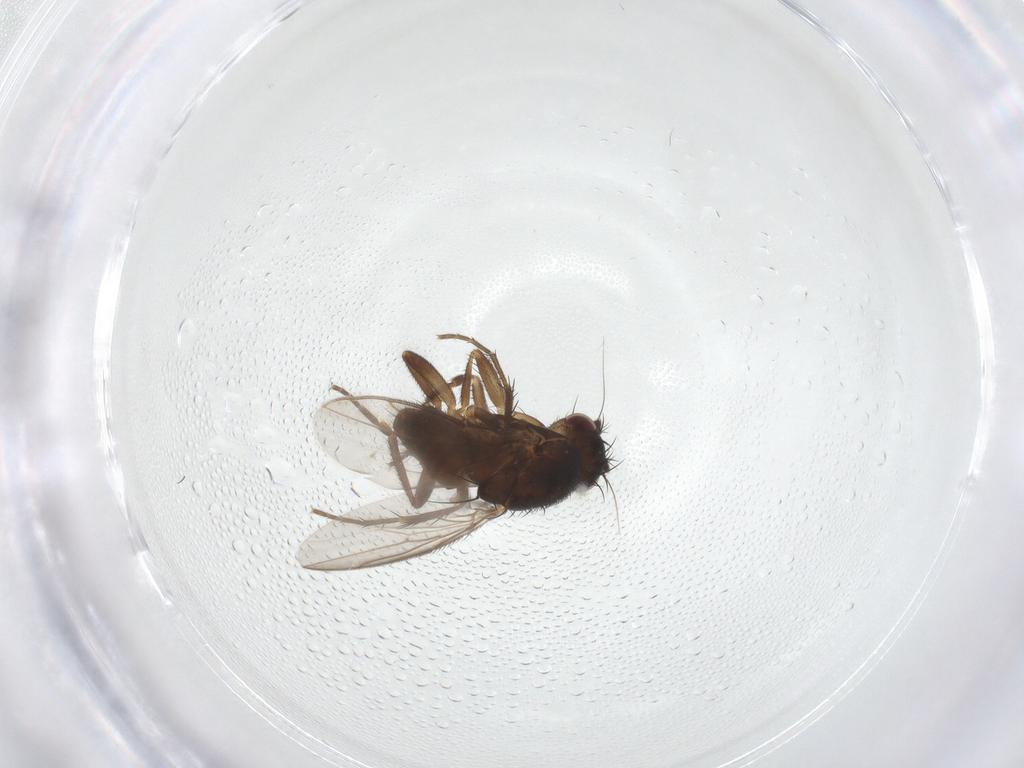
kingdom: Animalia
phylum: Arthropoda
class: Insecta
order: Diptera
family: Sphaeroceridae
